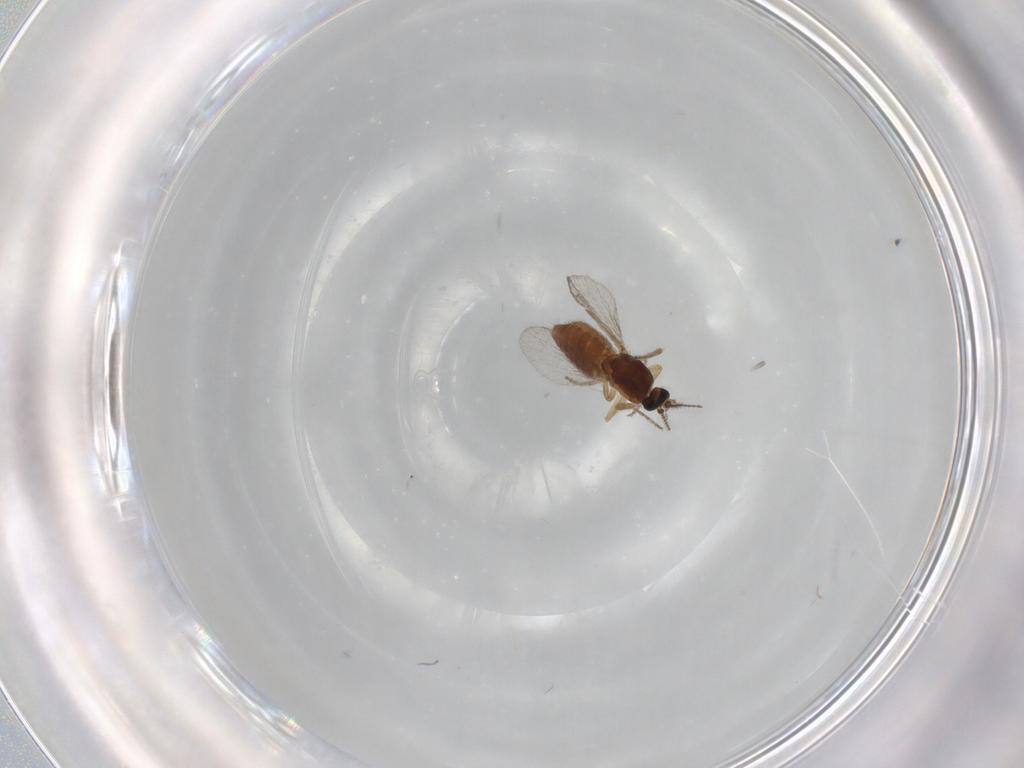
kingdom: Animalia
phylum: Arthropoda
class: Insecta
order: Diptera
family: Ceratopogonidae
